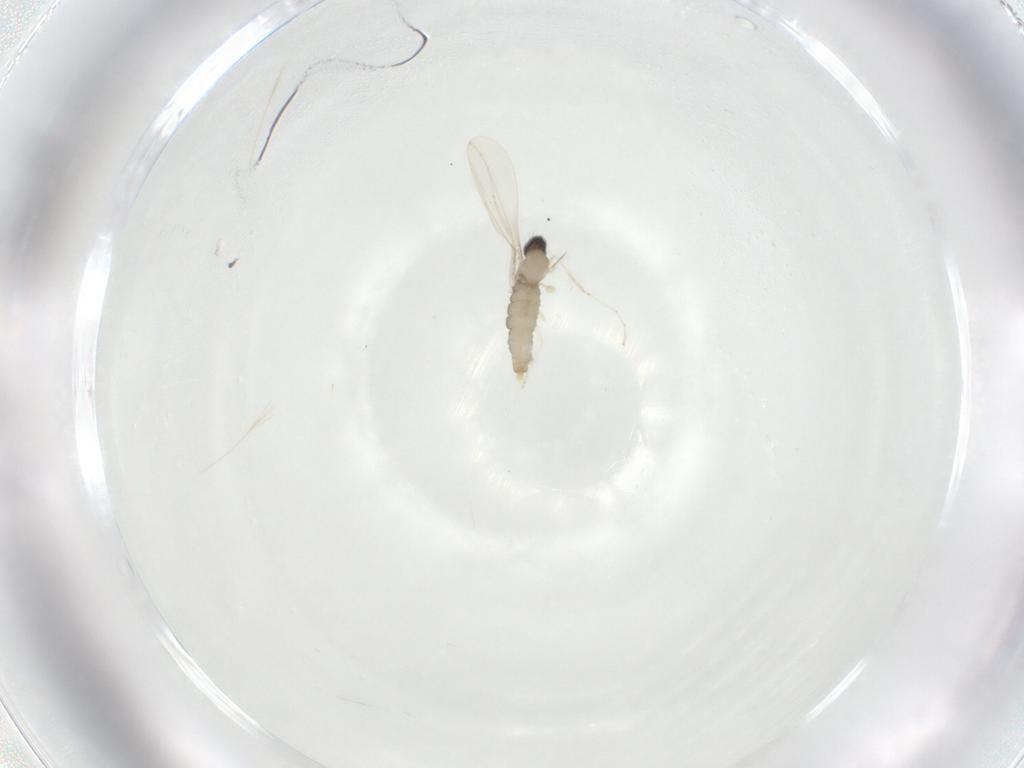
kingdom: Animalia
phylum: Arthropoda
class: Insecta
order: Diptera
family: Cecidomyiidae
